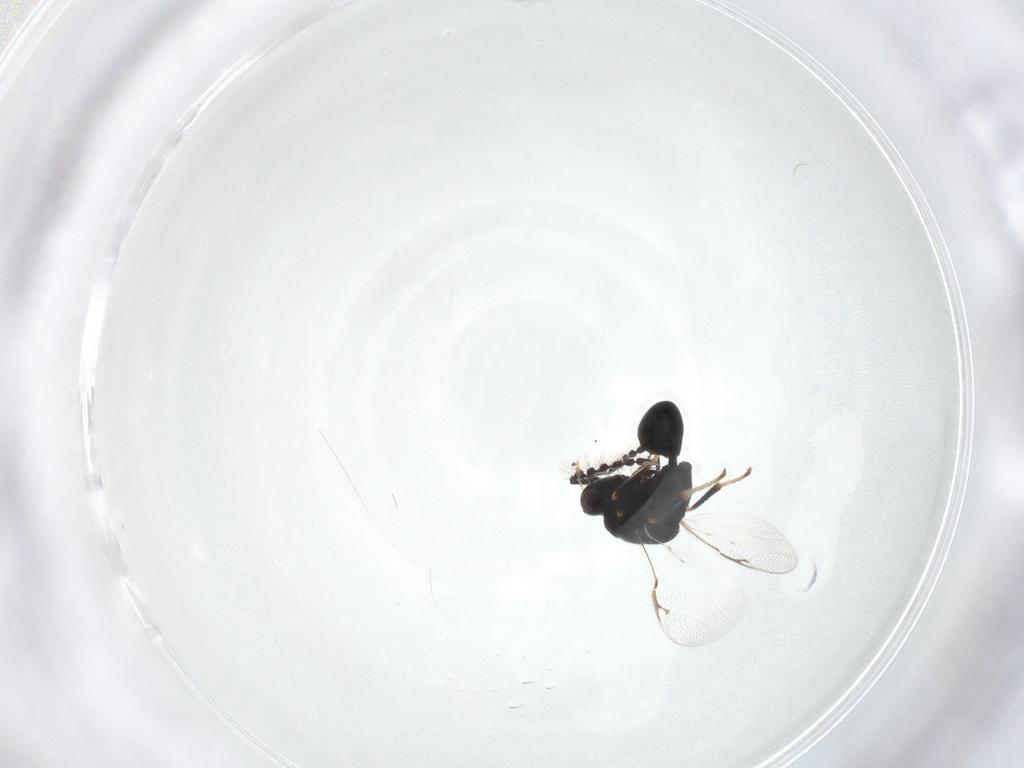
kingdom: Animalia
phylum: Arthropoda
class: Insecta
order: Hymenoptera
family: Eurytomidae
